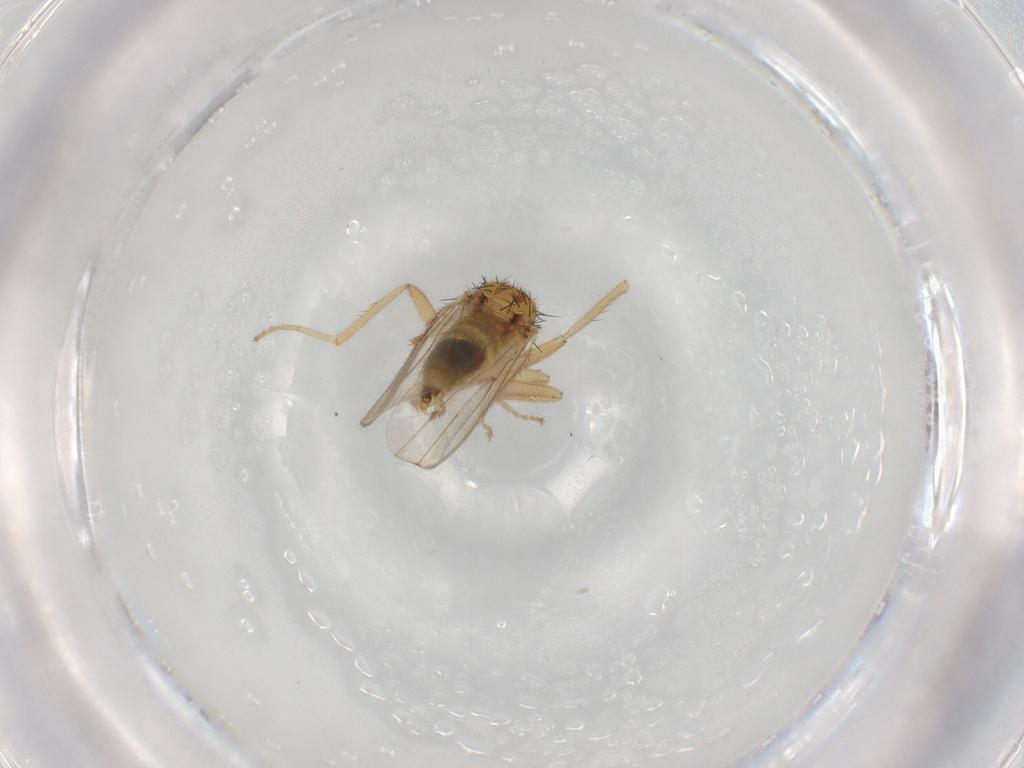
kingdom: Animalia
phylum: Arthropoda
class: Insecta
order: Diptera
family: Hybotidae
